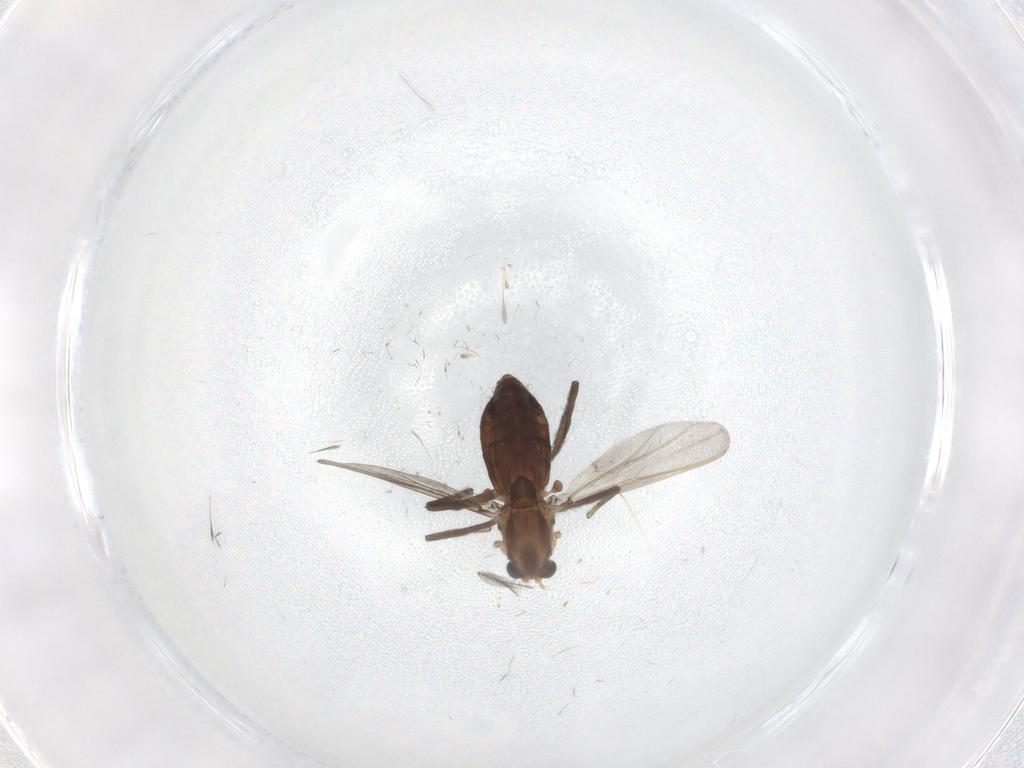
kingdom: Animalia
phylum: Arthropoda
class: Insecta
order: Diptera
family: Chironomidae
